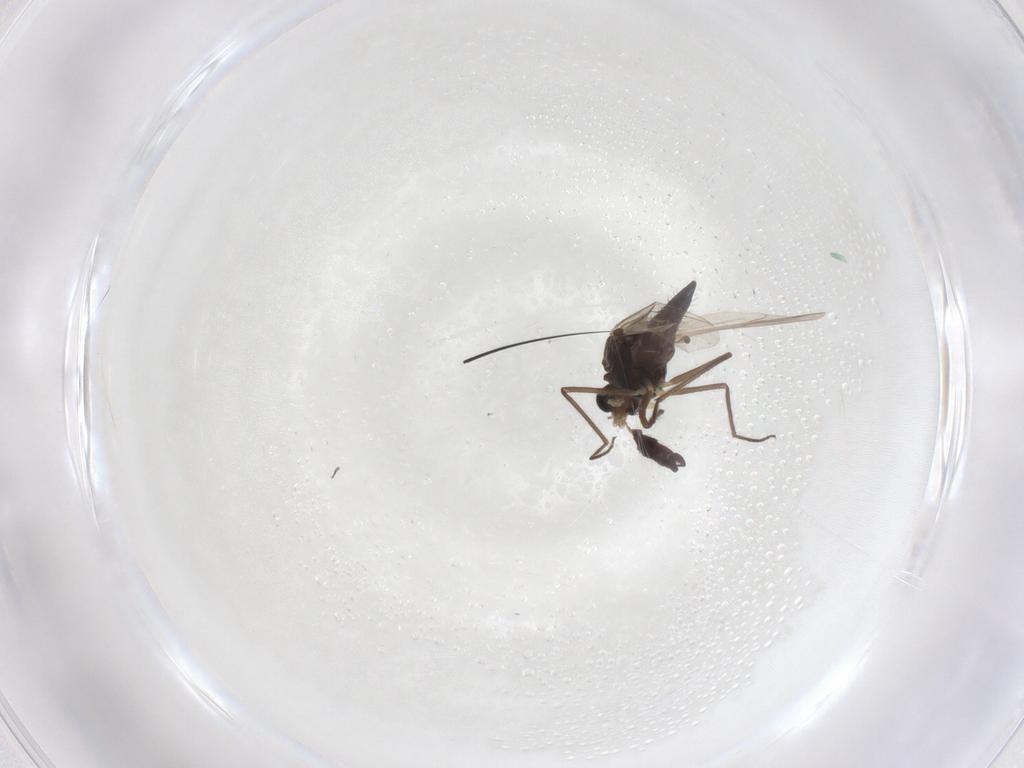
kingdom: Animalia
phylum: Arthropoda
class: Insecta
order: Diptera
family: Chironomidae
